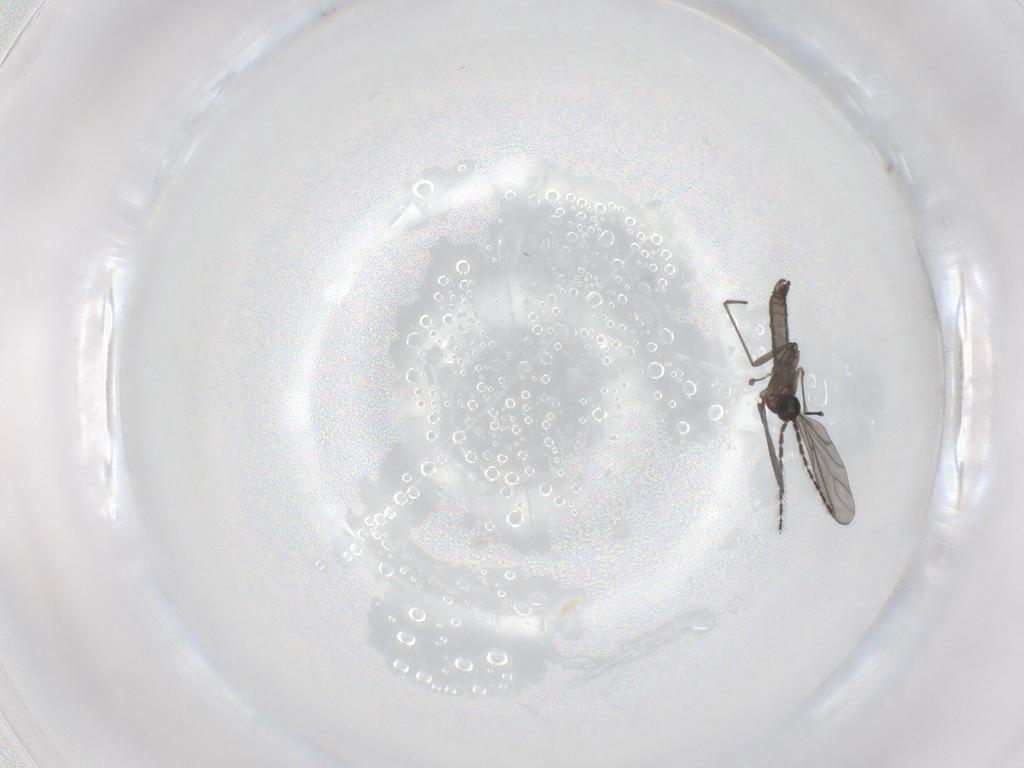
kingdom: Animalia
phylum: Arthropoda
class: Insecta
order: Diptera
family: Sciaridae
